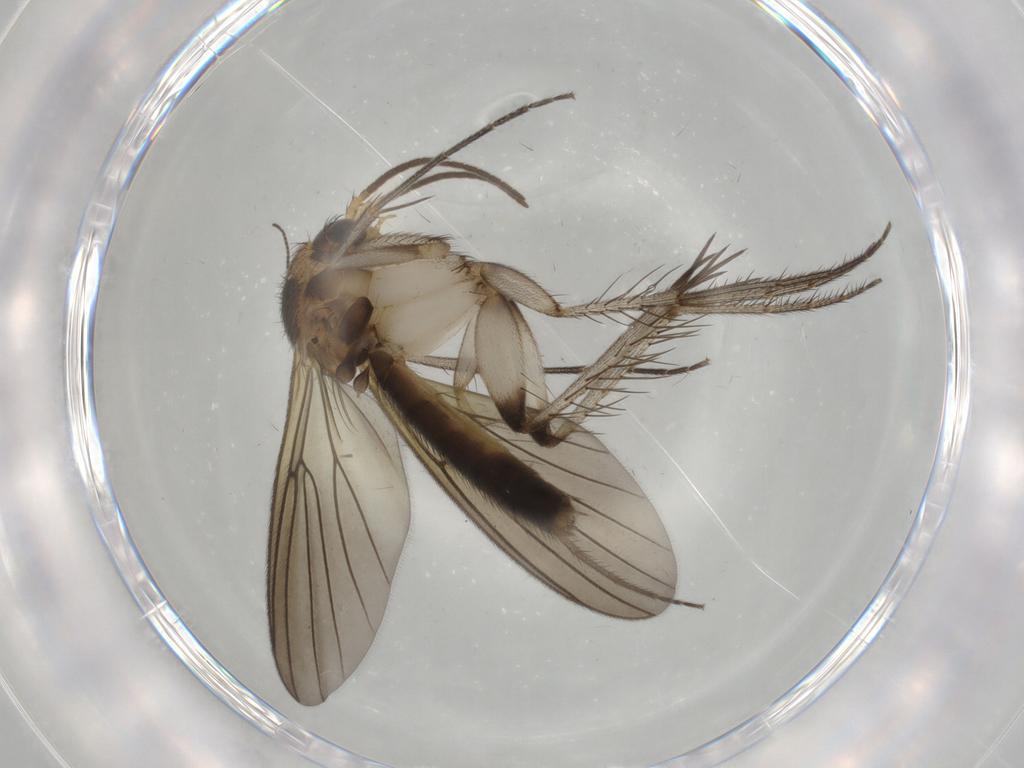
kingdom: Animalia
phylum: Arthropoda
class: Insecta
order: Diptera
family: Mycetophilidae
